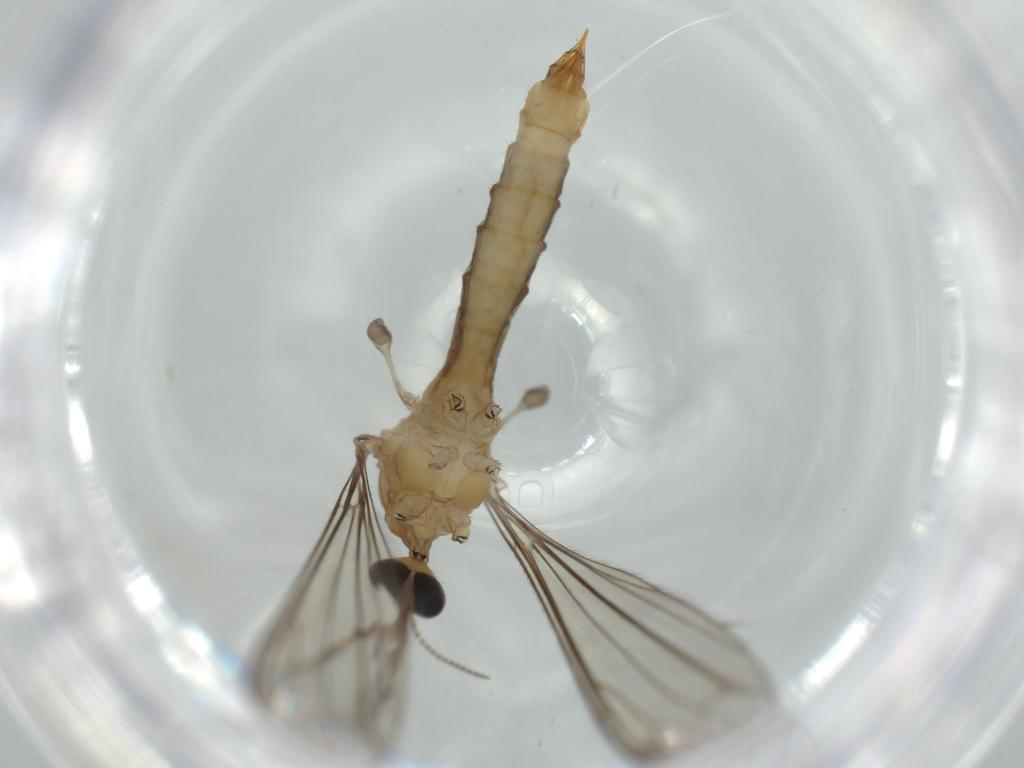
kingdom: Animalia
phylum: Arthropoda
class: Insecta
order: Diptera
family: Limoniidae
